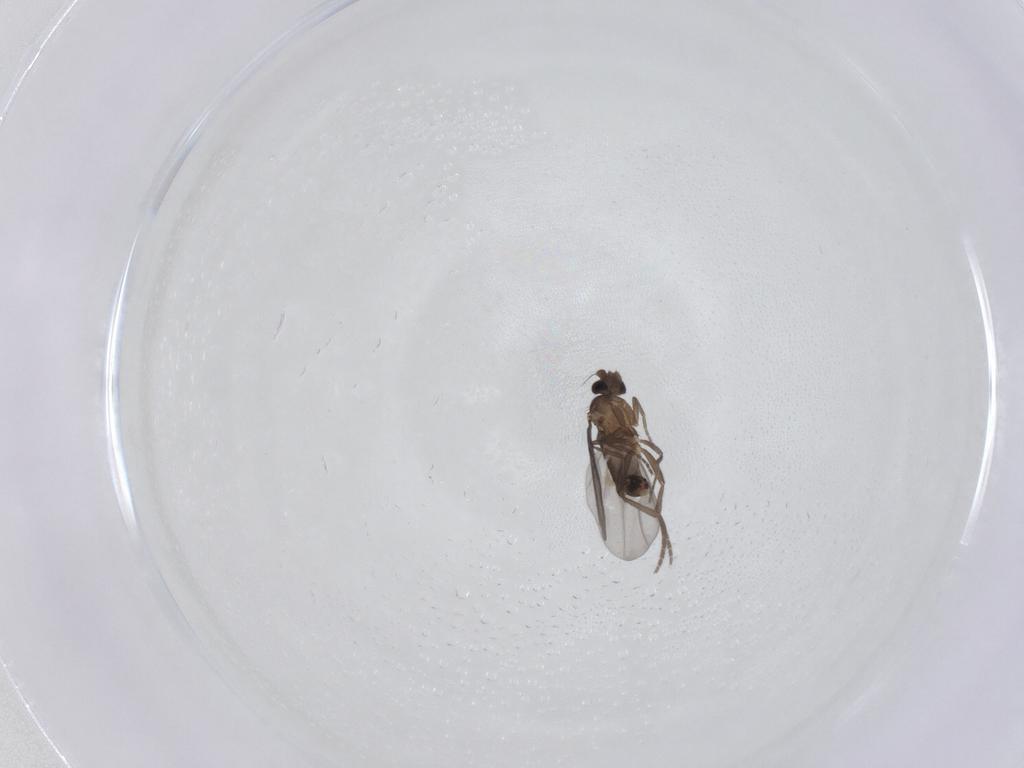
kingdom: Animalia
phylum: Arthropoda
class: Insecta
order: Diptera
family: Phoridae
